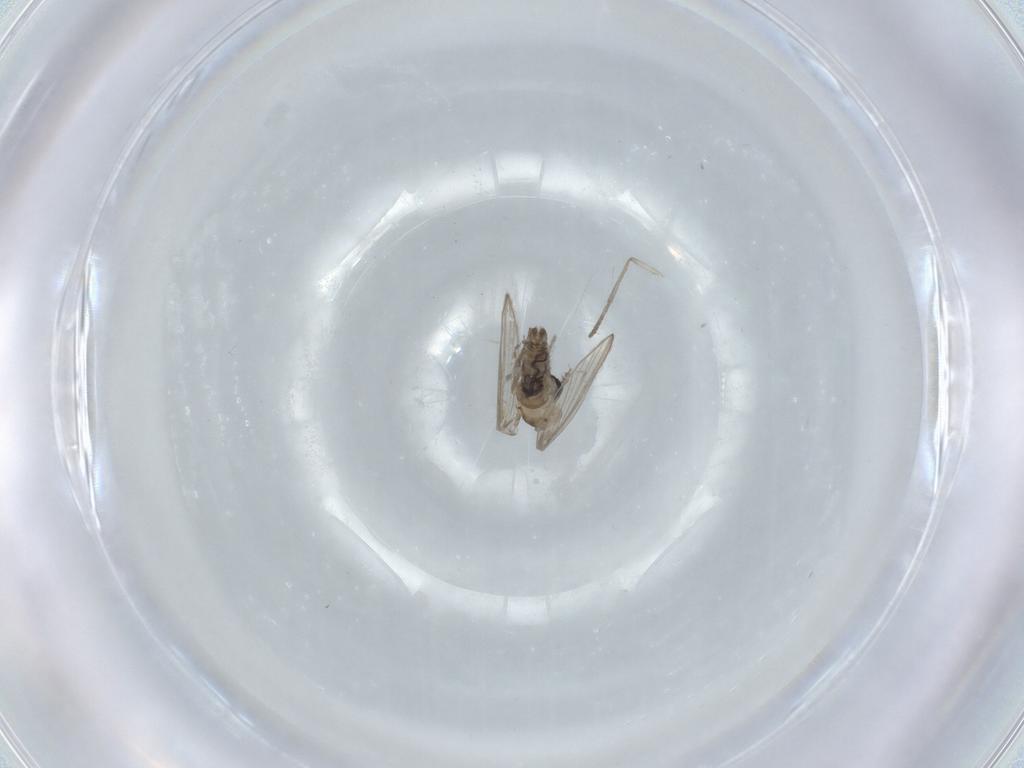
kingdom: Animalia
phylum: Arthropoda
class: Insecta
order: Diptera
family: Psychodidae
